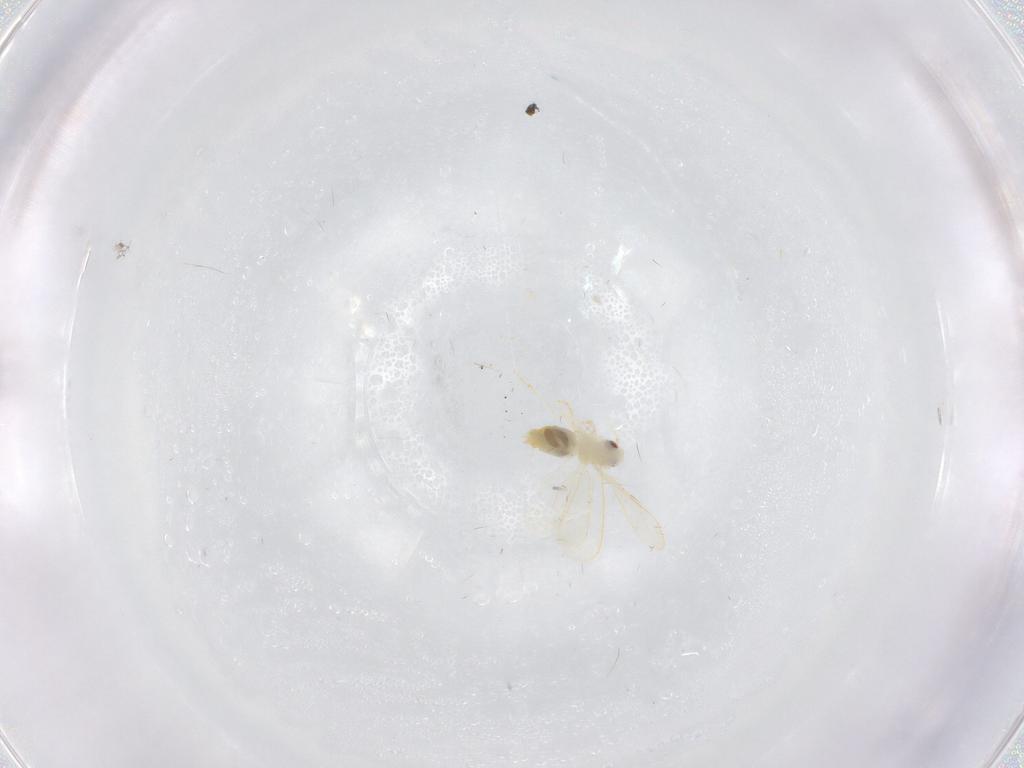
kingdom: Animalia
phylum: Arthropoda
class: Insecta
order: Hemiptera
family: Aleyrodidae
